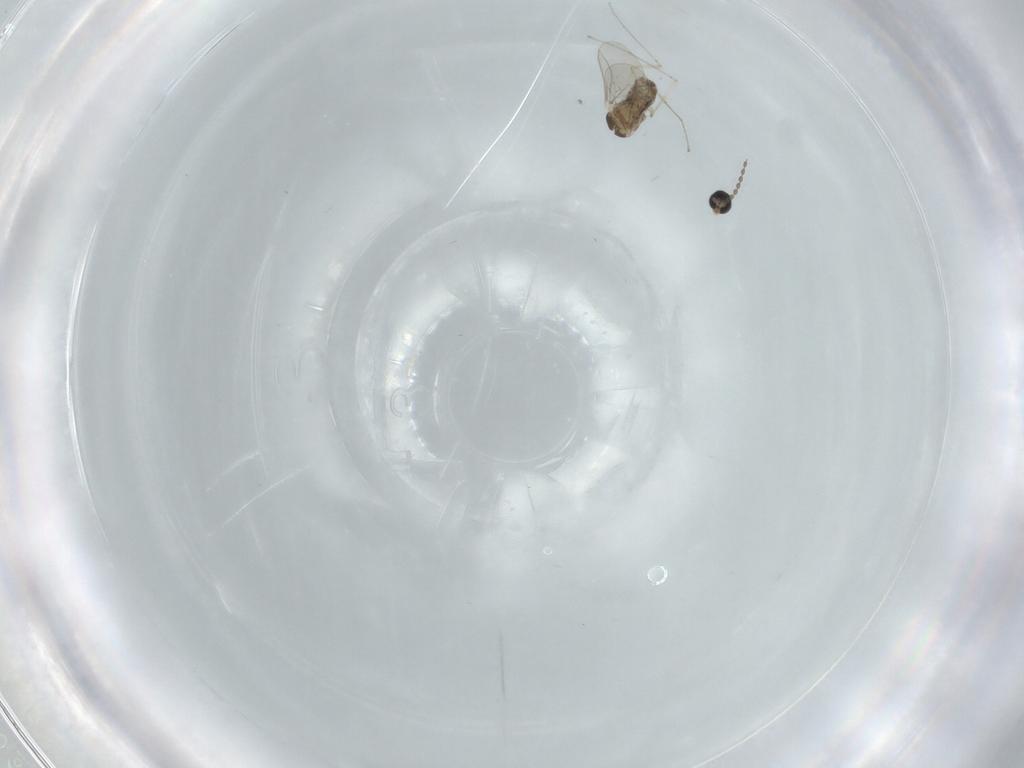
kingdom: Animalia
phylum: Arthropoda
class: Insecta
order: Diptera
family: Cecidomyiidae
